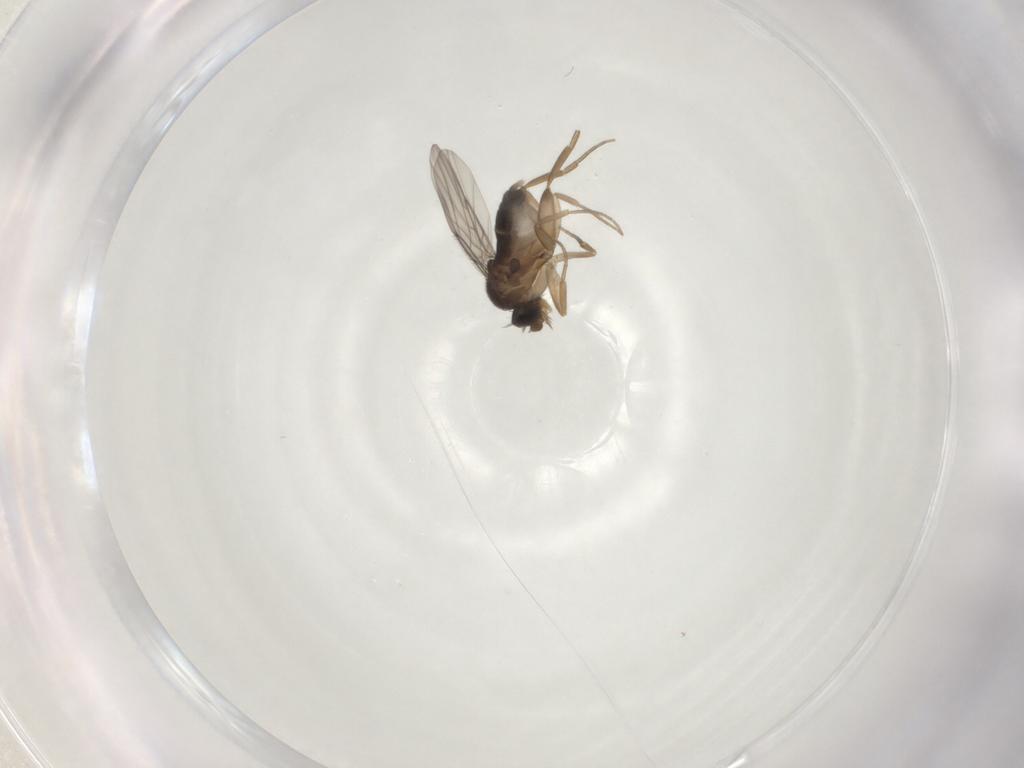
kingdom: Animalia
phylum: Arthropoda
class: Insecta
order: Diptera
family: Phoridae
